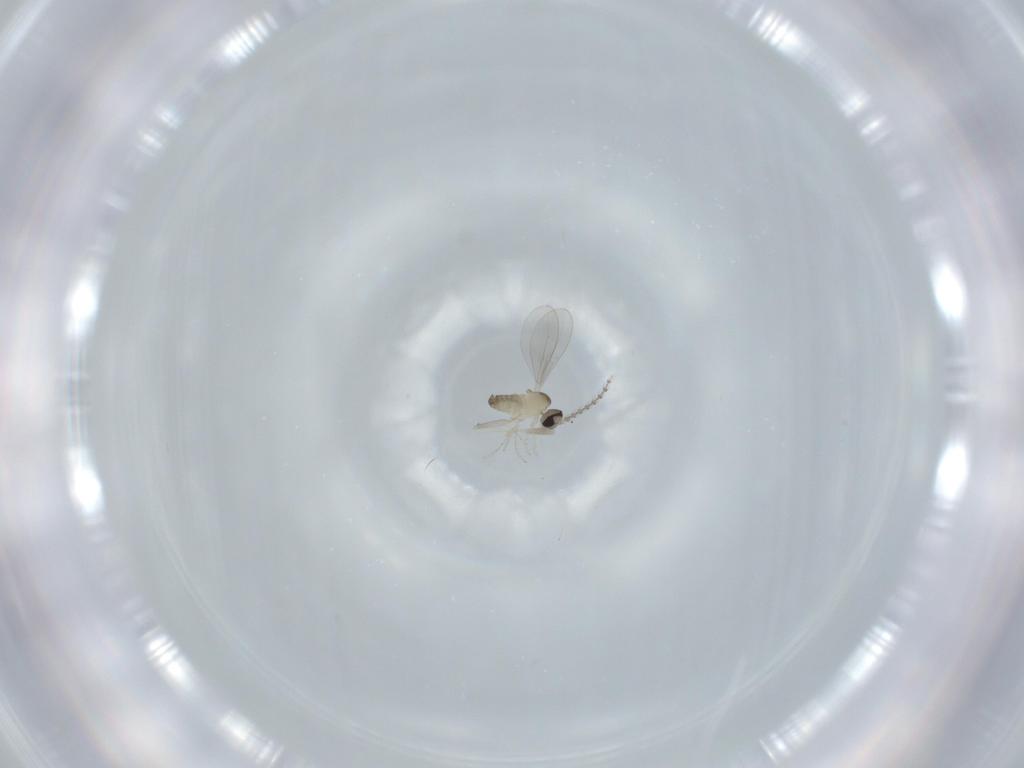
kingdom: Animalia
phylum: Arthropoda
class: Insecta
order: Diptera
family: Cecidomyiidae
